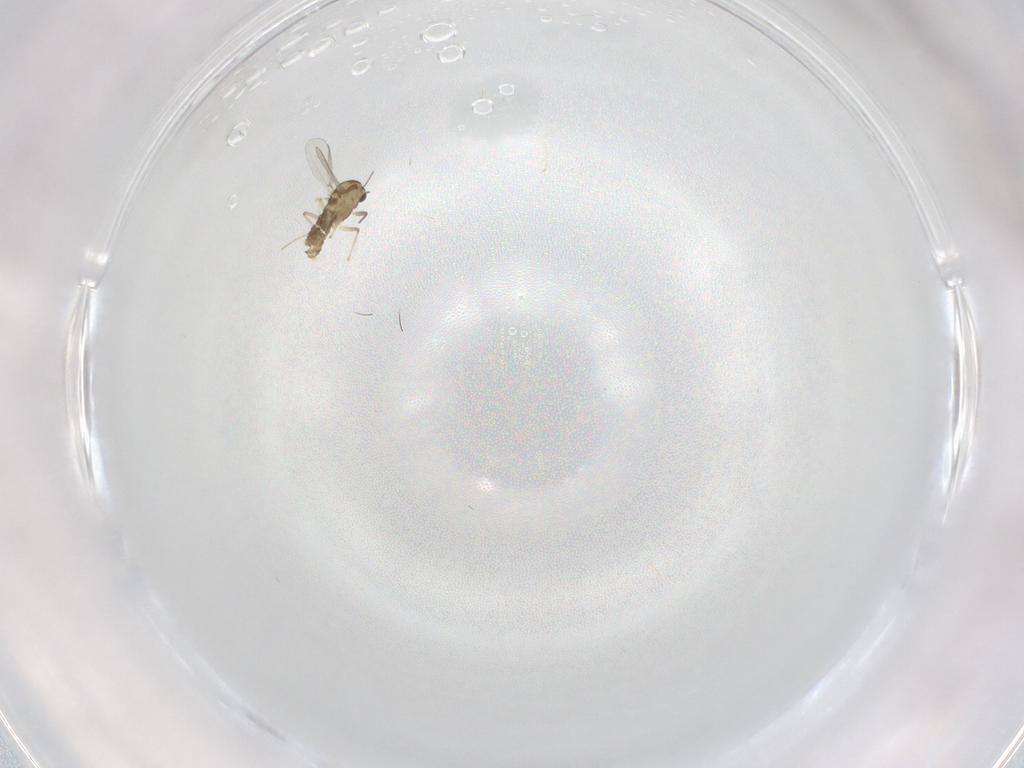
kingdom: Animalia
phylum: Arthropoda
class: Insecta
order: Diptera
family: Chironomidae
